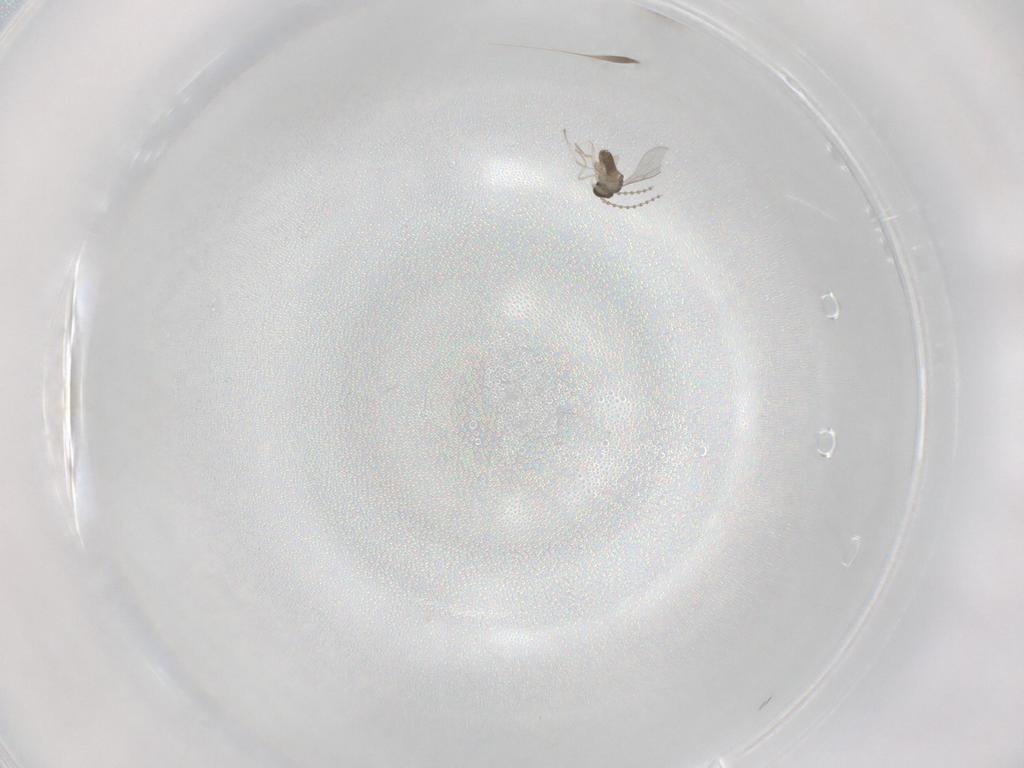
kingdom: Animalia
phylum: Arthropoda
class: Insecta
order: Diptera
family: Cecidomyiidae
